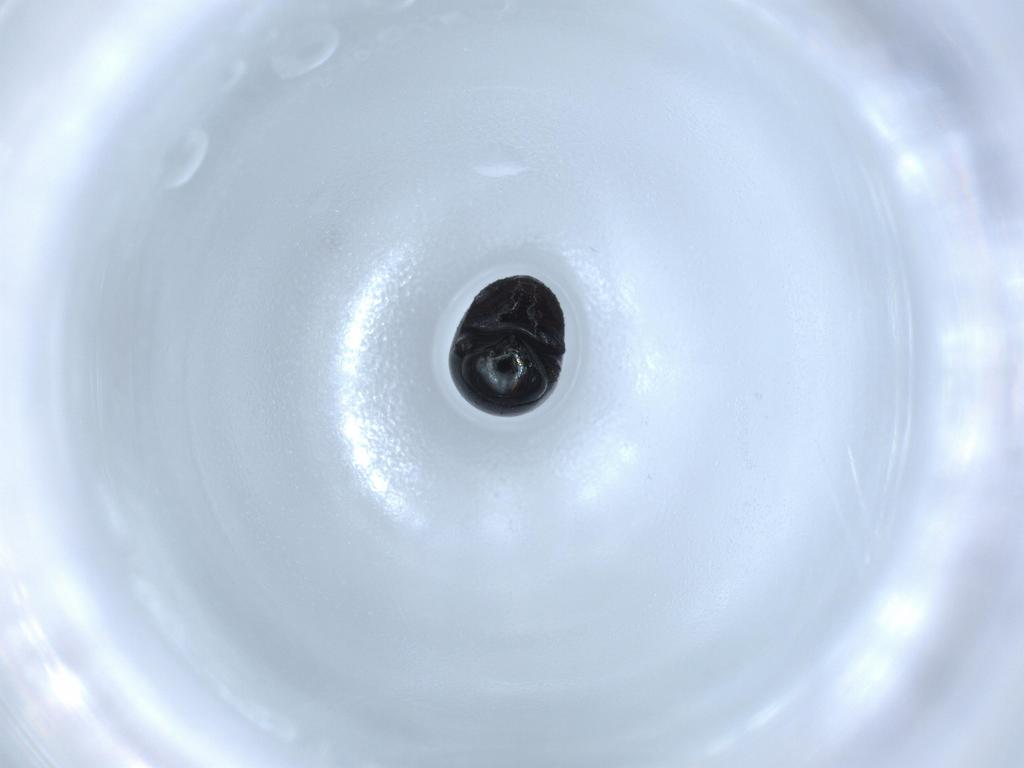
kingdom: Animalia
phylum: Arthropoda
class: Insecta
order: Coleoptera
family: Cybocephalidae
